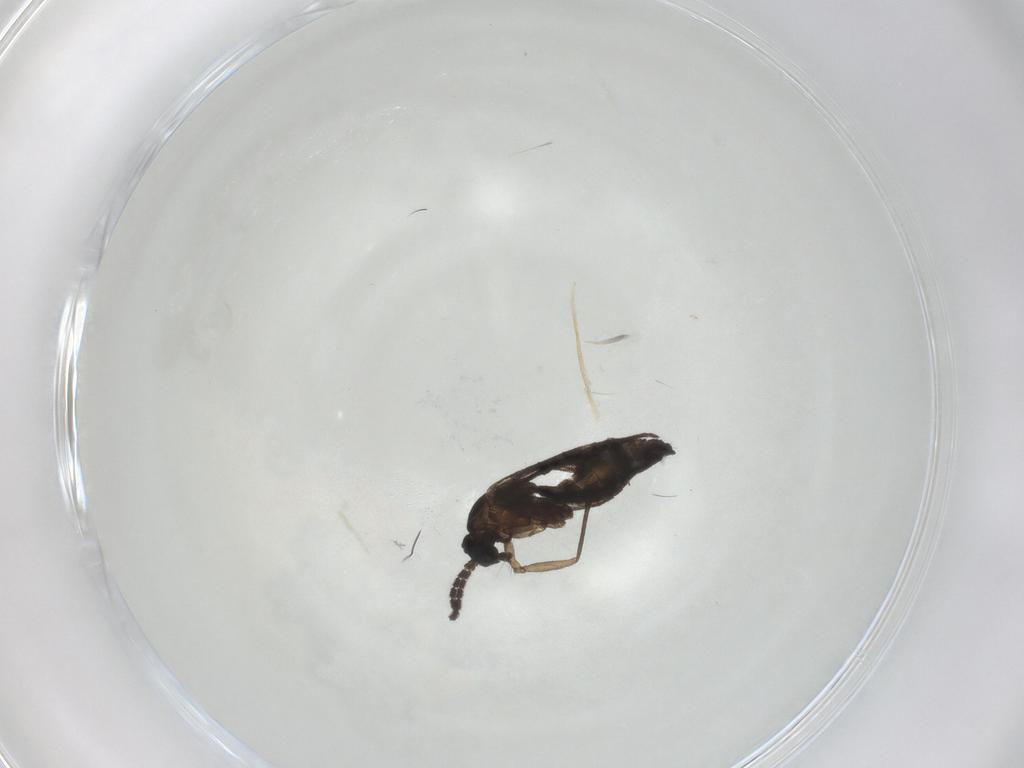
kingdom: Animalia
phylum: Arthropoda
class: Insecta
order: Diptera
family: Sciaridae
